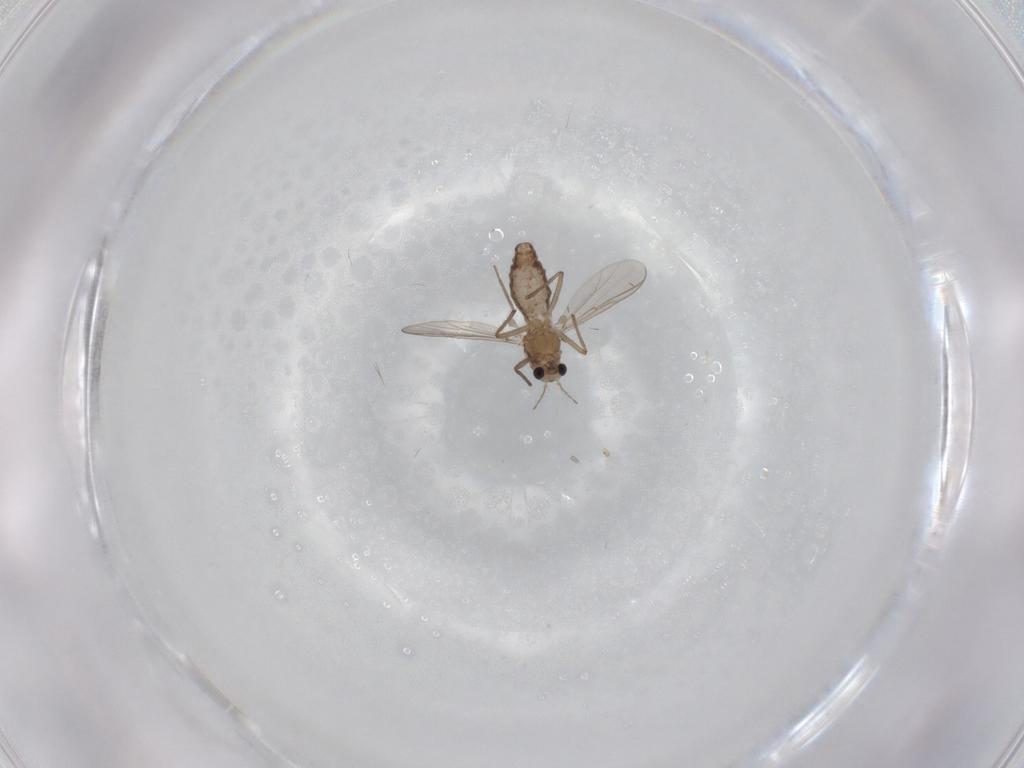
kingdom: Animalia
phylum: Arthropoda
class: Insecta
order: Diptera
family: Chironomidae
